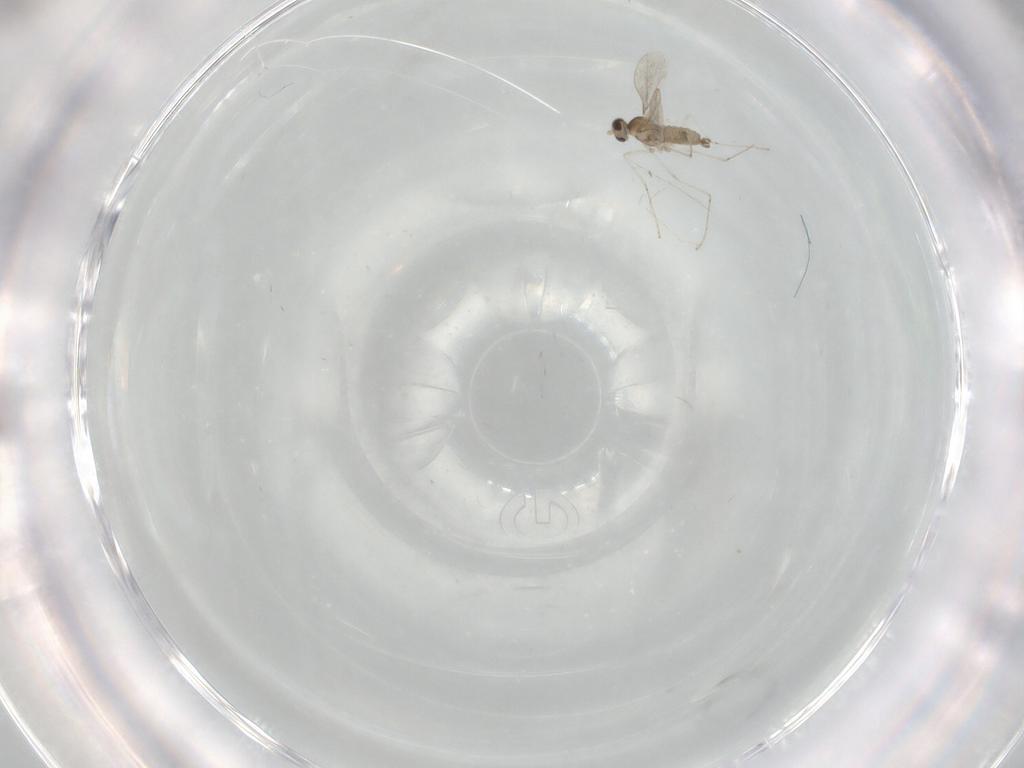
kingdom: Animalia
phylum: Arthropoda
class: Insecta
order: Diptera
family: Cecidomyiidae
